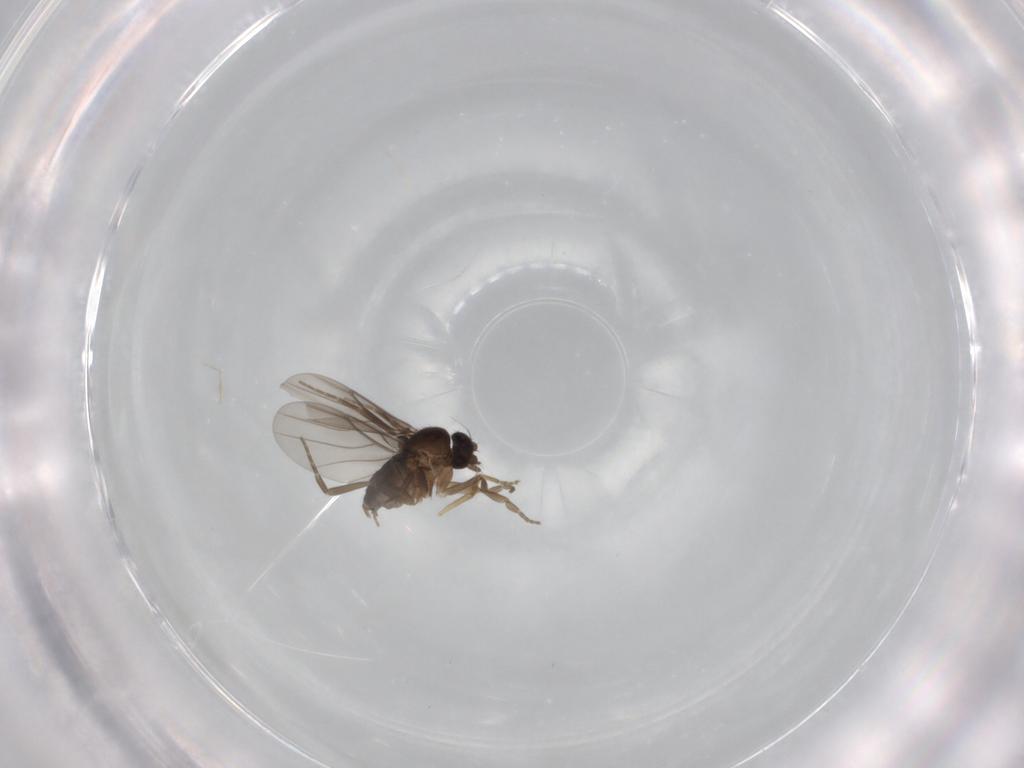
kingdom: Animalia
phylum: Arthropoda
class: Insecta
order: Diptera
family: Ceratopogonidae
